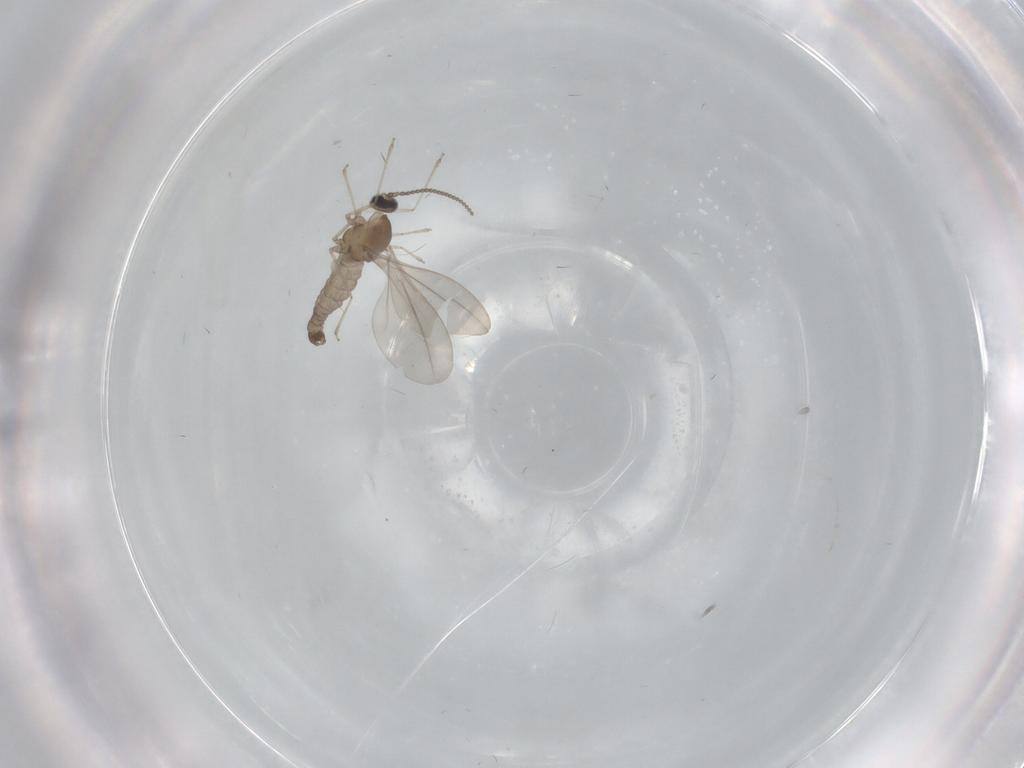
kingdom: Animalia
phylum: Arthropoda
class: Insecta
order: Diptera
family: Cecidomyiidae
